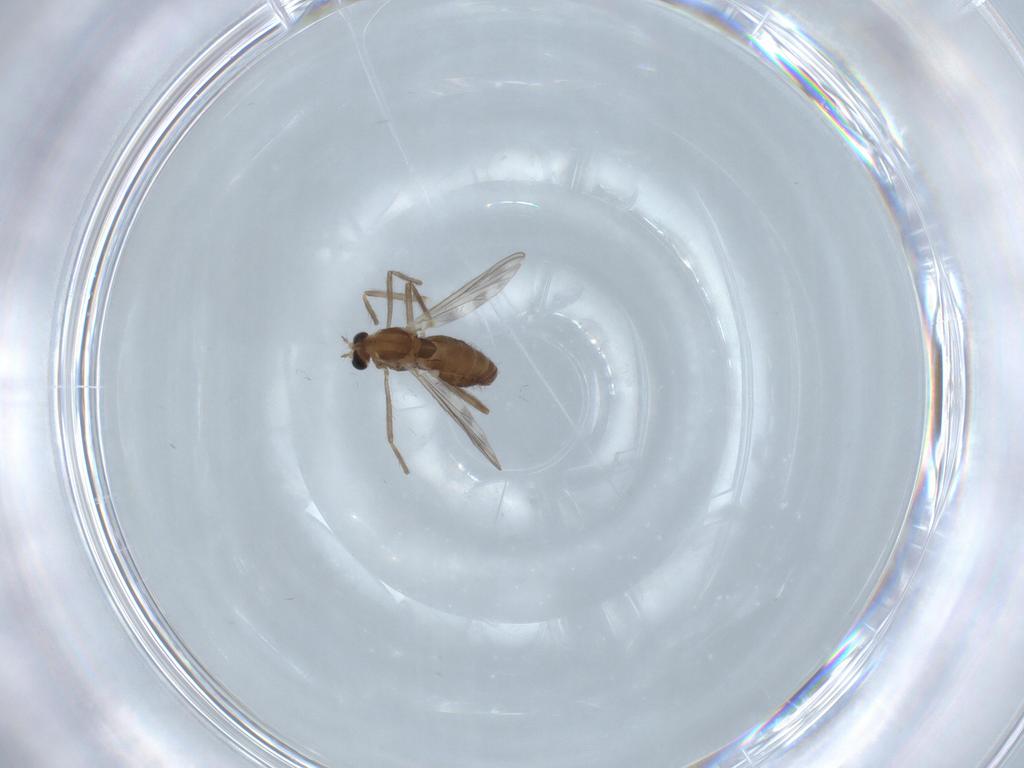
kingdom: Animalia
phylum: Arthropoda
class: Insecta
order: Diptera
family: Chironomidae
